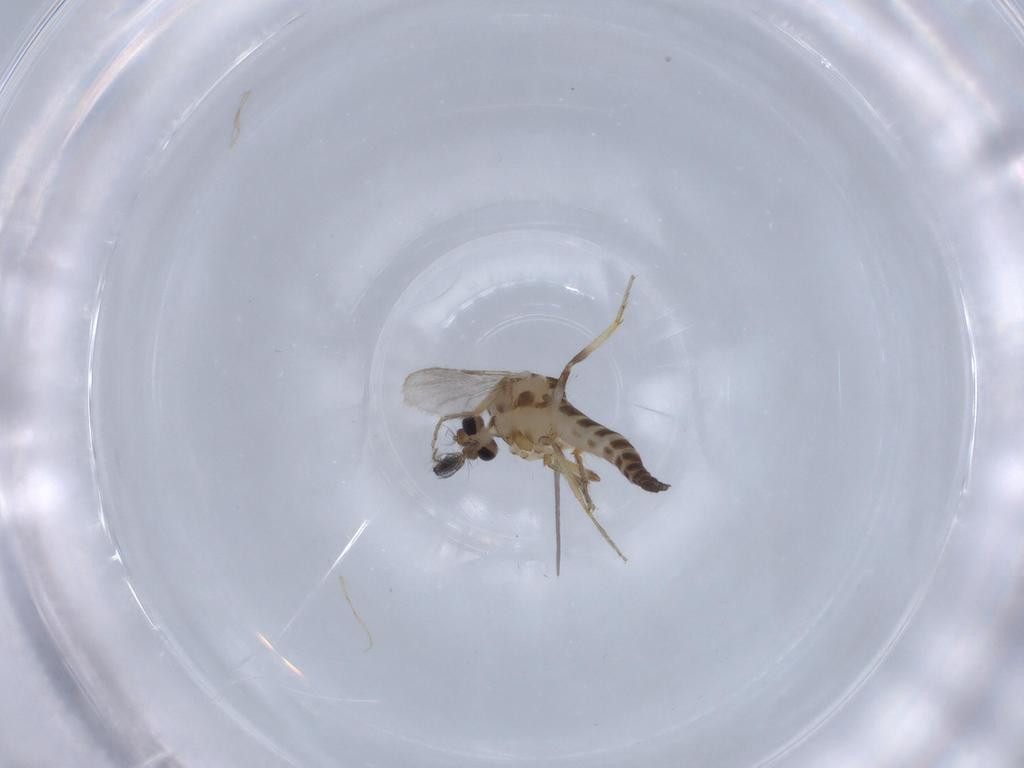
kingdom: Animalia
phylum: Arthropoda
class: Insecta
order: Diptera
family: Ceratopogonidae
